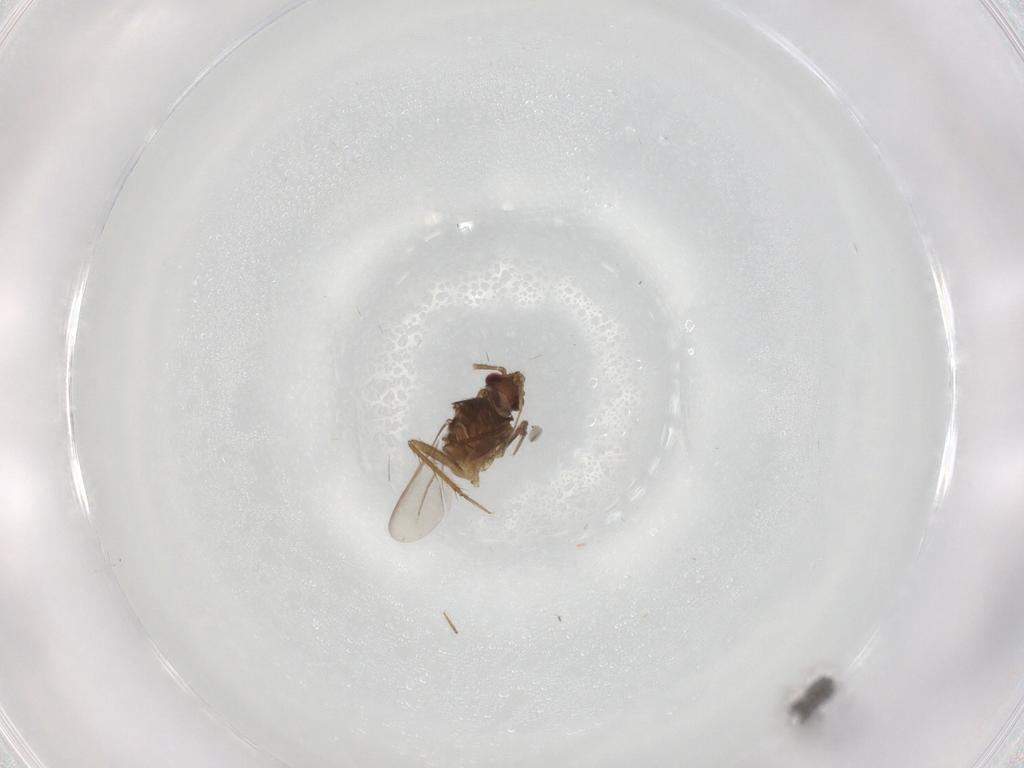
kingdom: Animalia
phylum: Arthropoda
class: Insecta
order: Hemiptera
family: Ceratocombidae
